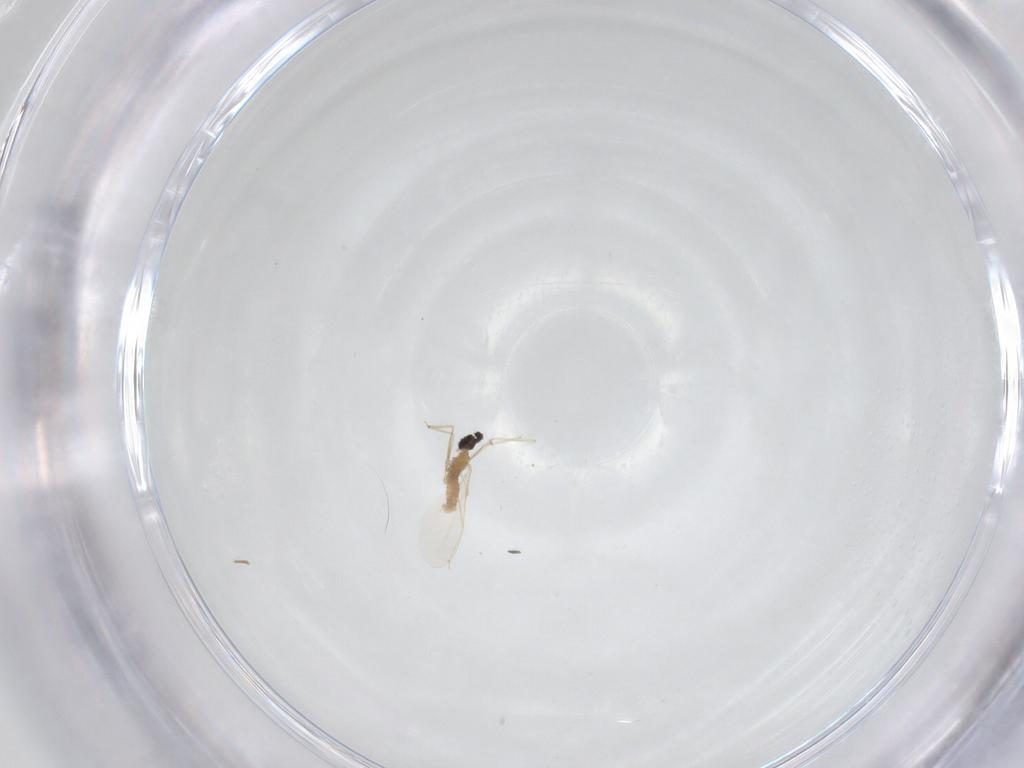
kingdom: Animalia
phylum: Arthropoda
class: Insecta
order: Diptera
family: Cecidomyiidae
